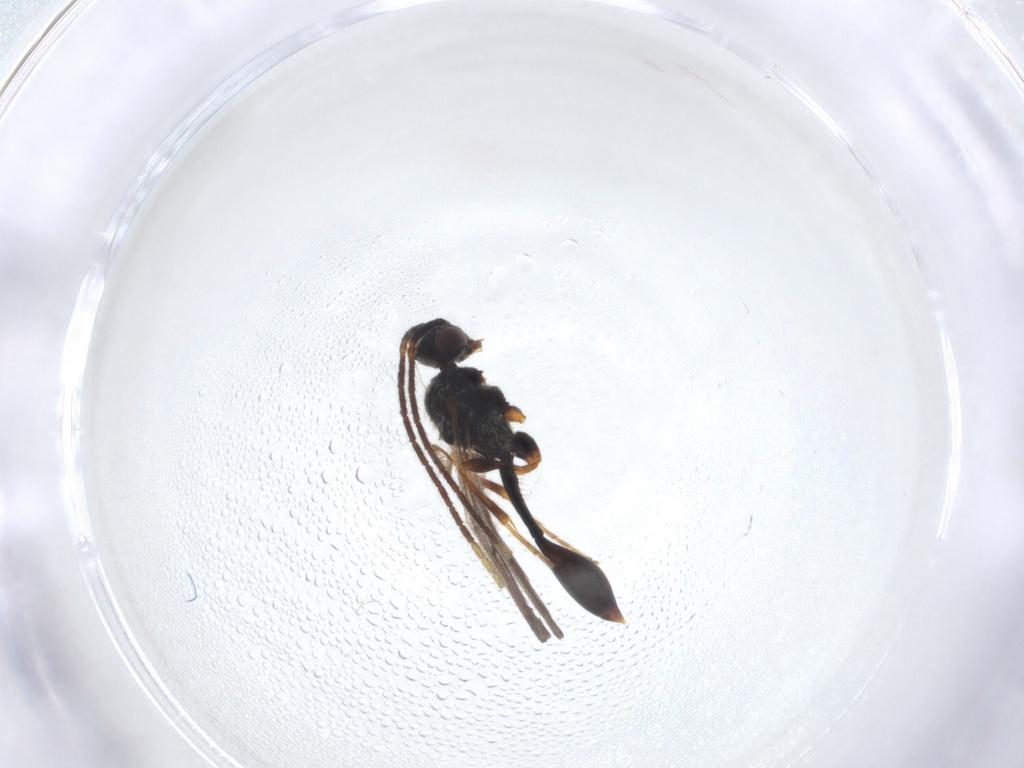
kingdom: Animalia
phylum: Arthropoda
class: Insecta
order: Hymenoptera
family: Diapriidae
